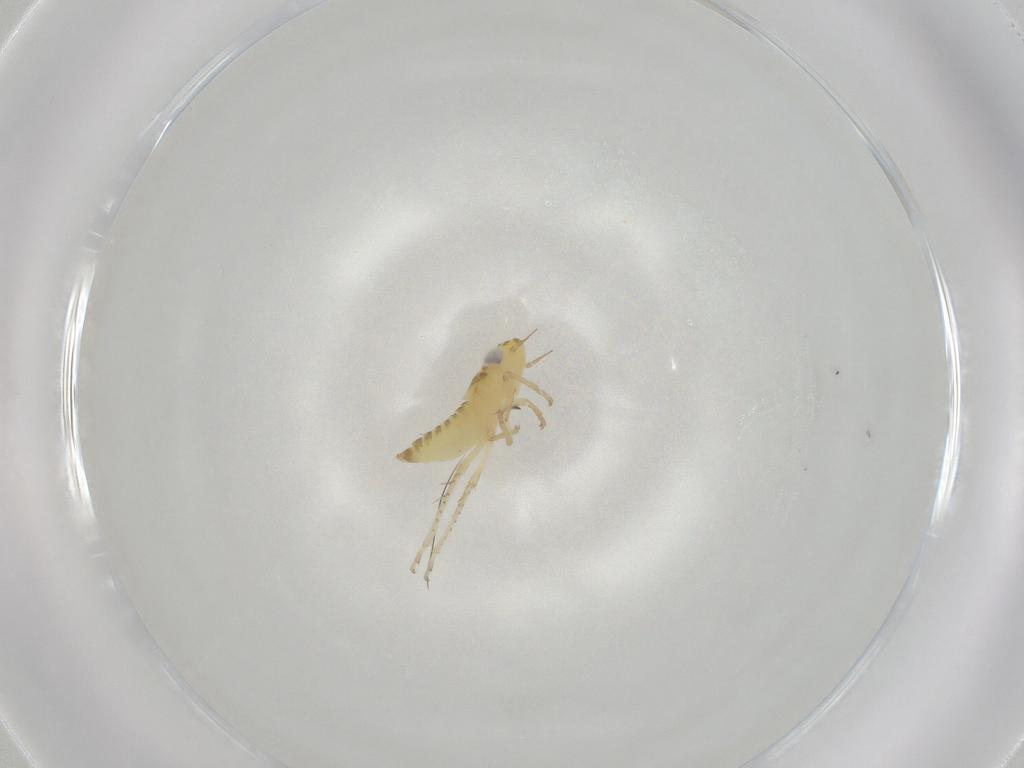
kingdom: Animalia
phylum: Arthropoda
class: Insecta
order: Hemiptera
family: Cicadellidae
